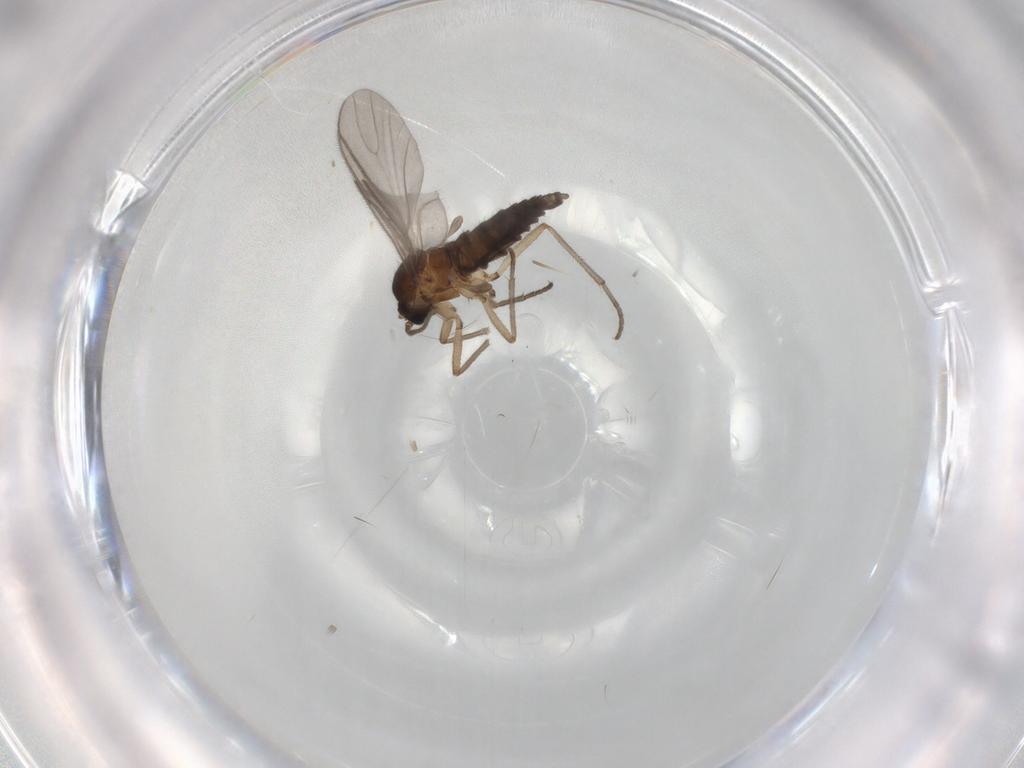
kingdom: Animalia
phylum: Arthropoda
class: Insecta
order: Diptera
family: Sciaridae
